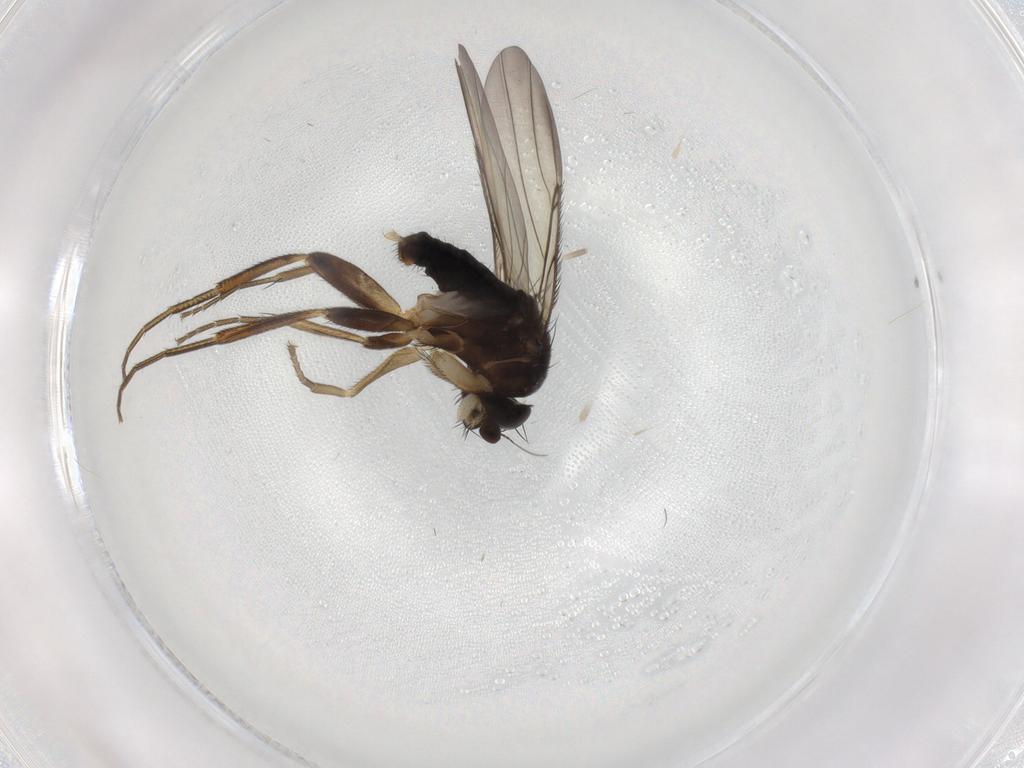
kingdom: Animalia
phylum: Arthropoda
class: Insecta
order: Diptera
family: Phoridae
